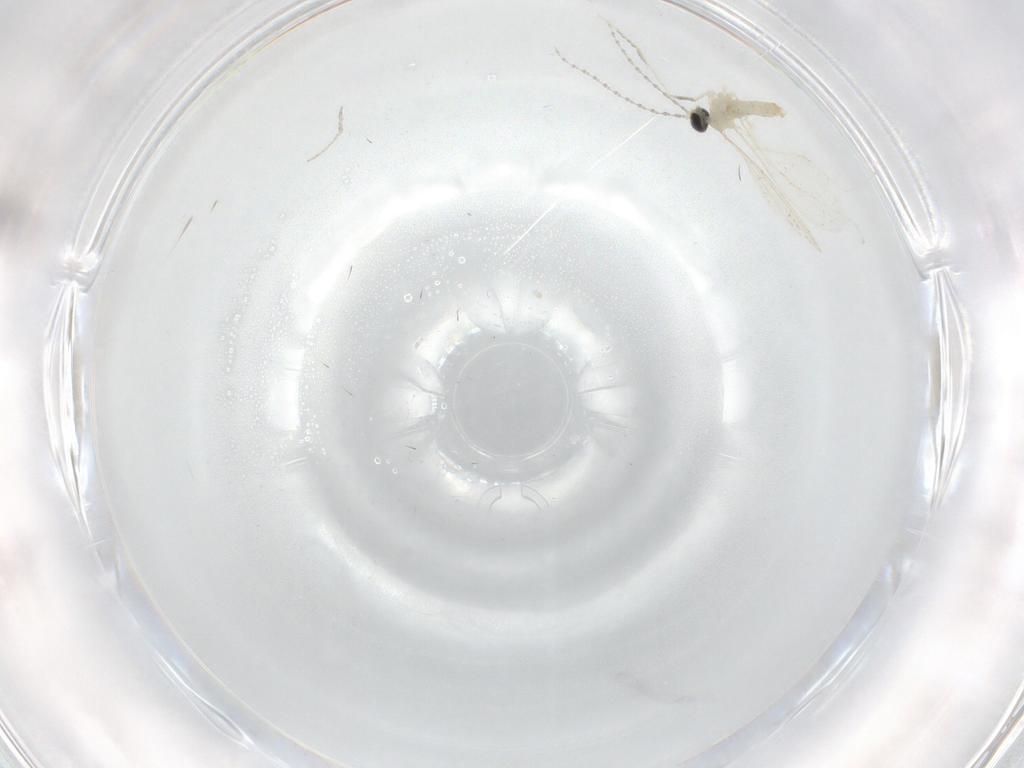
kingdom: Animalia
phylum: Arthropoda
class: Insecta
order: Diptera
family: Cecidomyiidae
